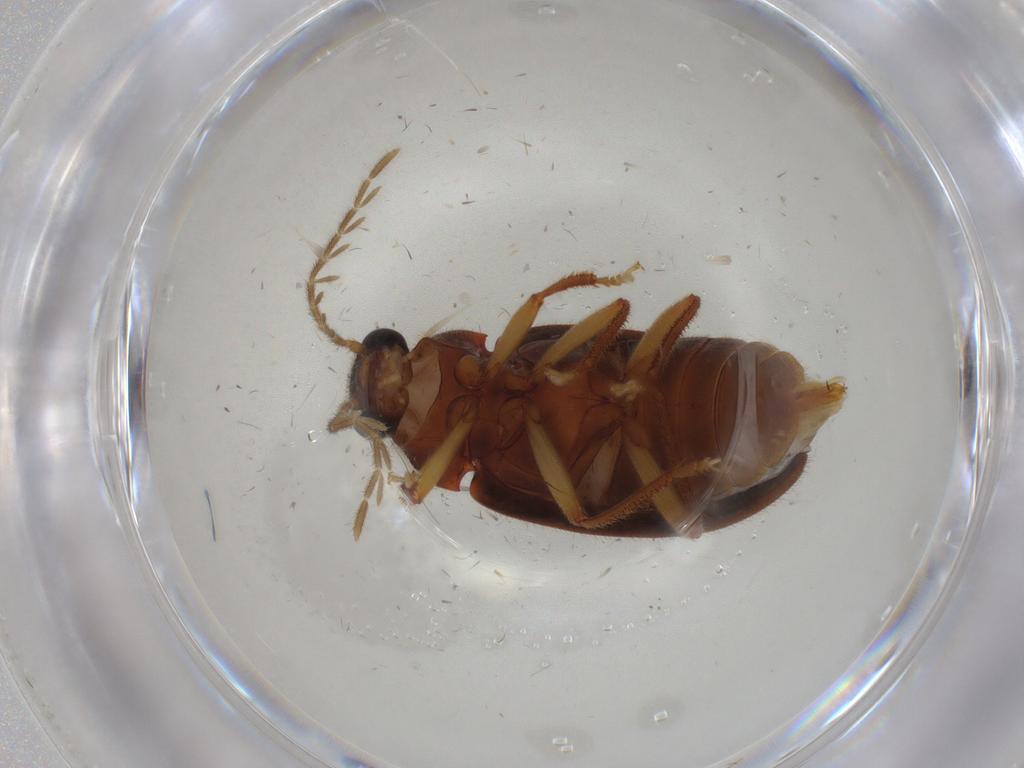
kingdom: Animalia
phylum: Arthropoda
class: Insecta
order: Coleoptera
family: Ptilodactylidae
